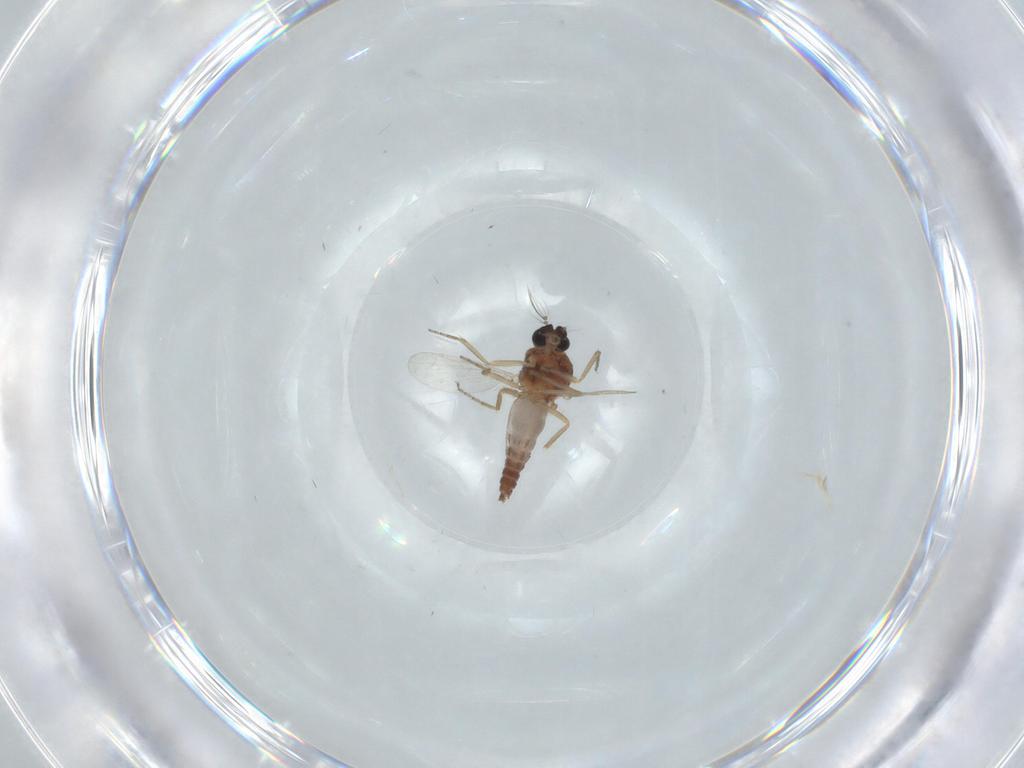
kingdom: Animalia
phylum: Arthropoda
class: Insecta
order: Diptera
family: Ceratopogonidae
